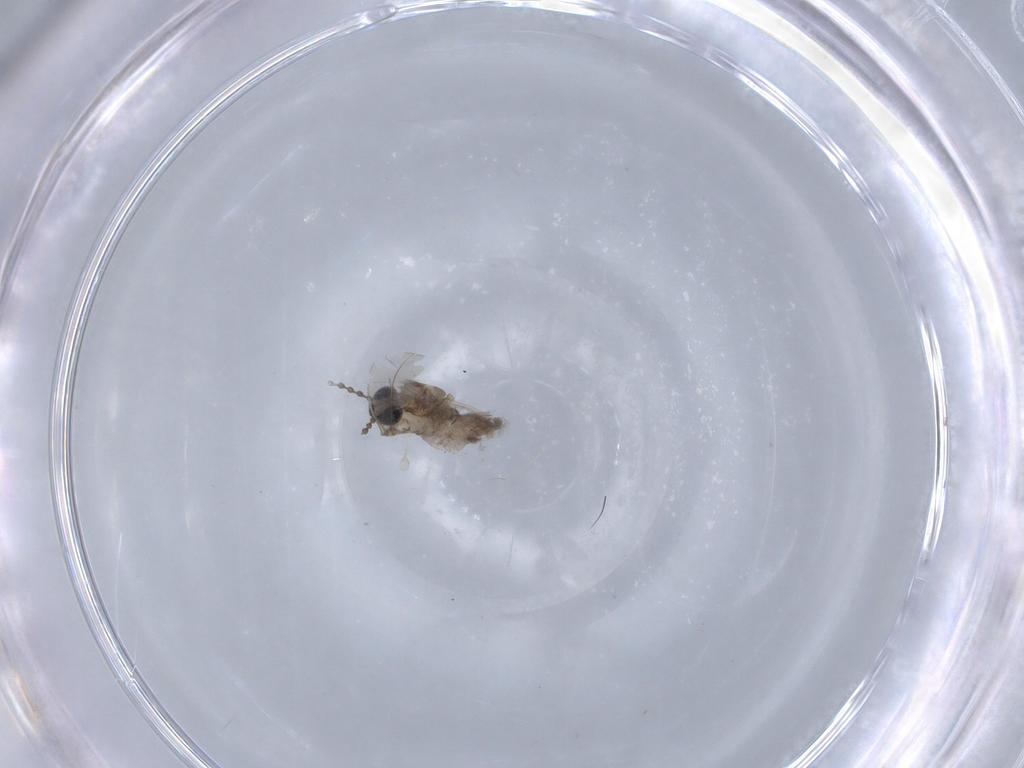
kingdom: Animalia
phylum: Arthropoda
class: Insecta
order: Diptera
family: Cecidomyiidae
